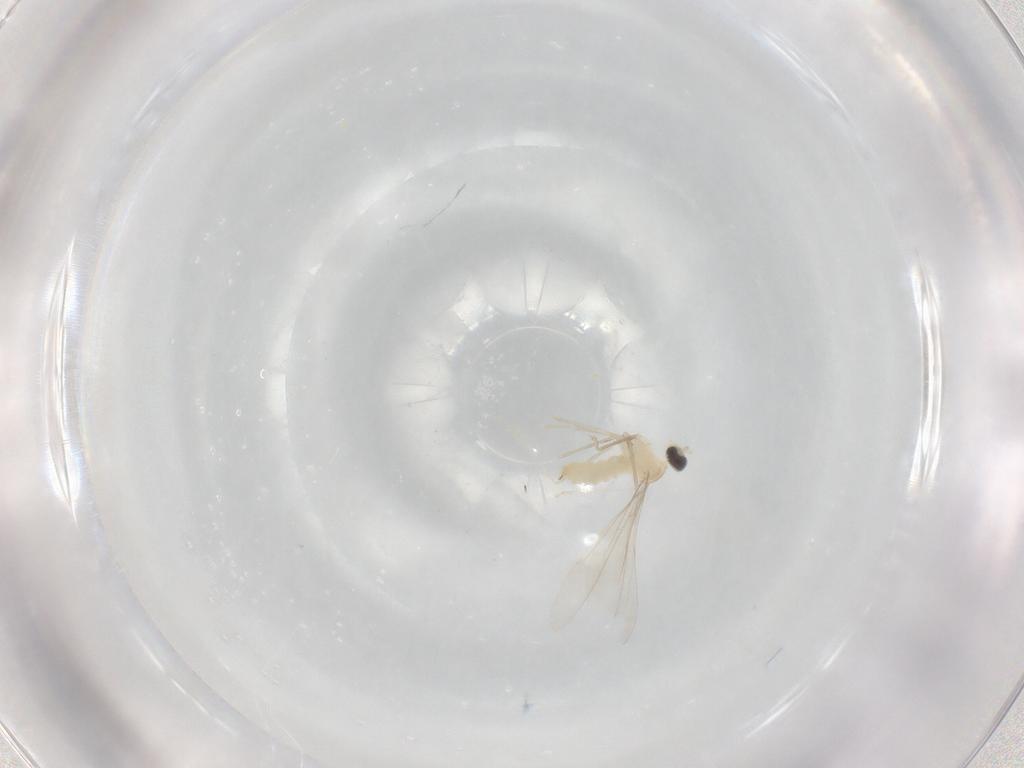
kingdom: Animalia
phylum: Arthropoda
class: Insecta
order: Diptera
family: Cecidomyiidae
